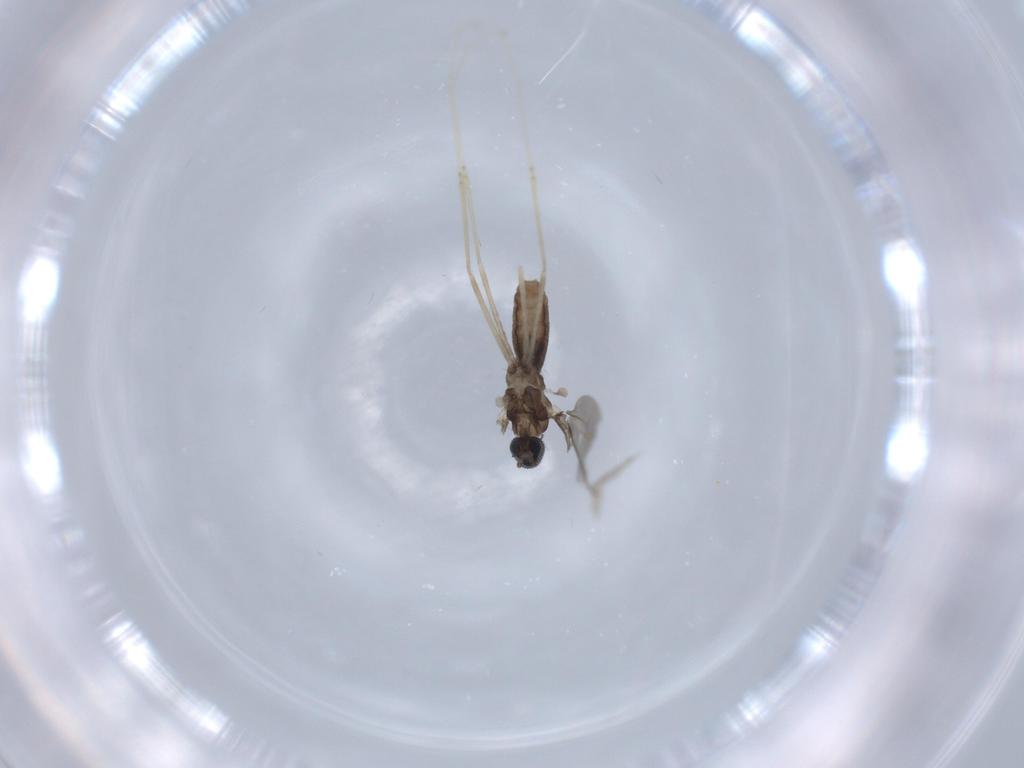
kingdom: Animalia
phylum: Arthropoda
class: Insecta
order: Diptera
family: Cecidomyiidae
